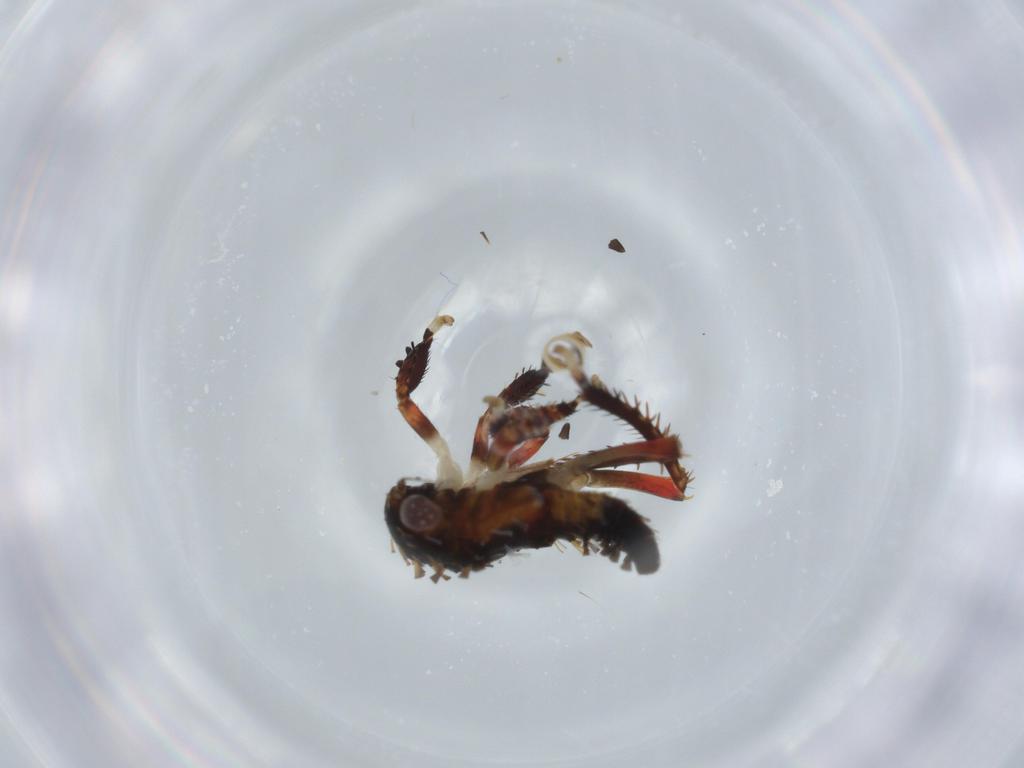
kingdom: Animalia
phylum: Arthropoda
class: Insecta
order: Hemiptera
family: Cicadellidae
